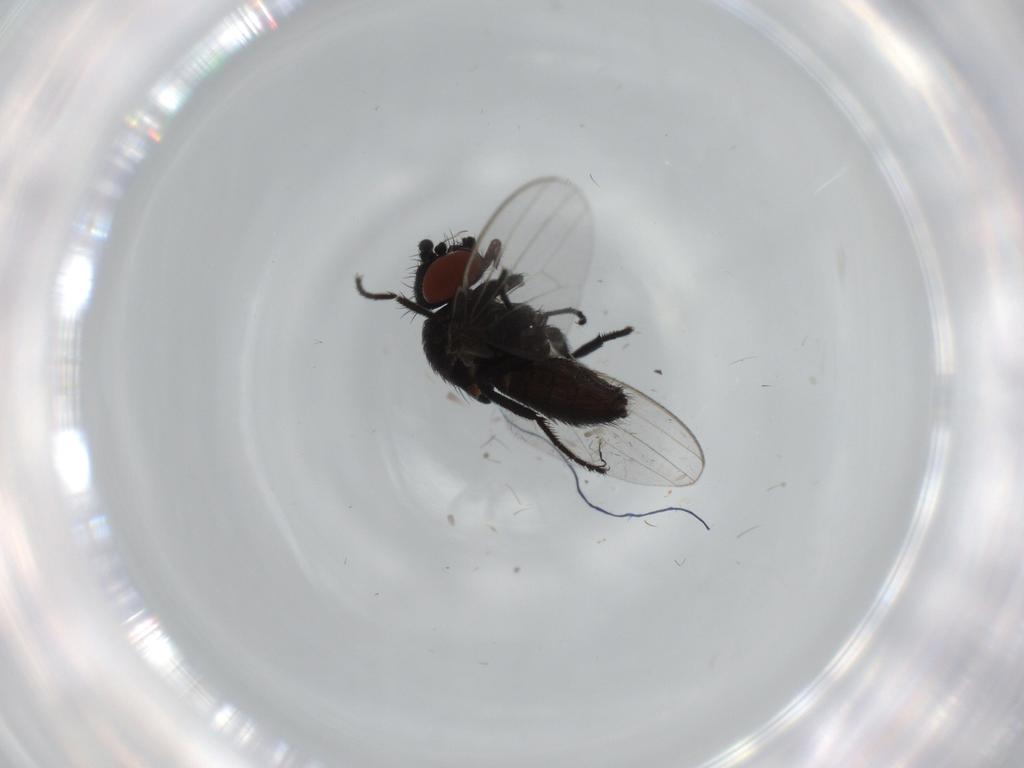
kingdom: Animalia
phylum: Arthropoda
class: Insecta
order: Diptera
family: Milichiidae
